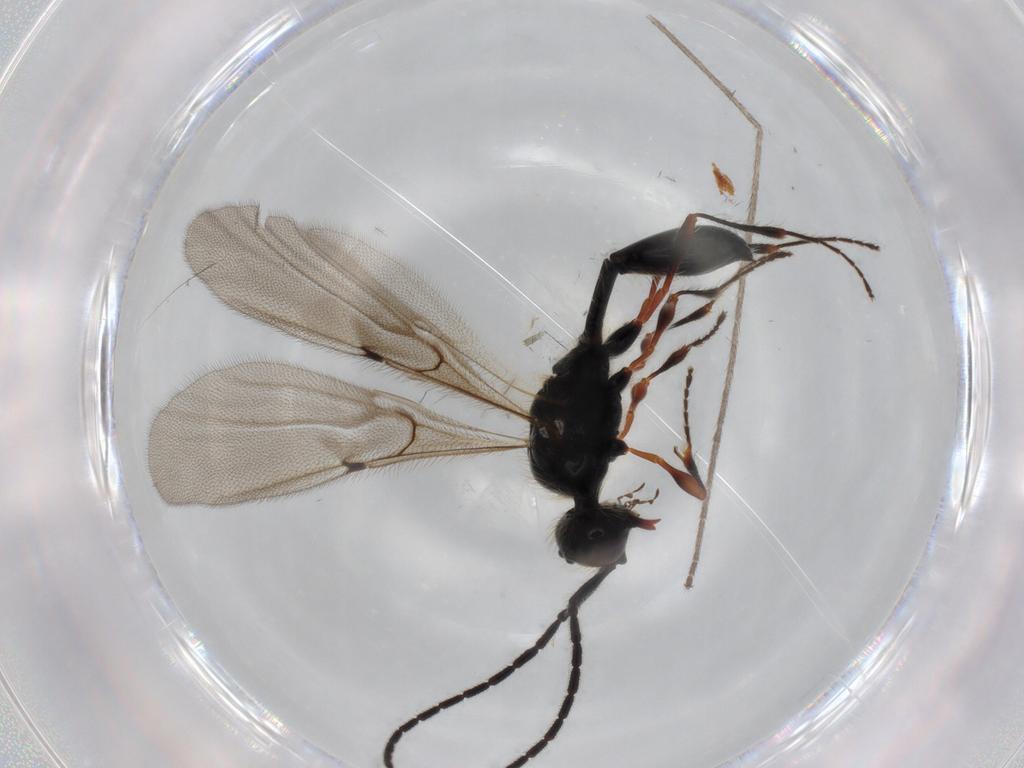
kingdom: Animalia
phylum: Arthropoda
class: Insecta
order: Hymenoptera
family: Diapriidae
